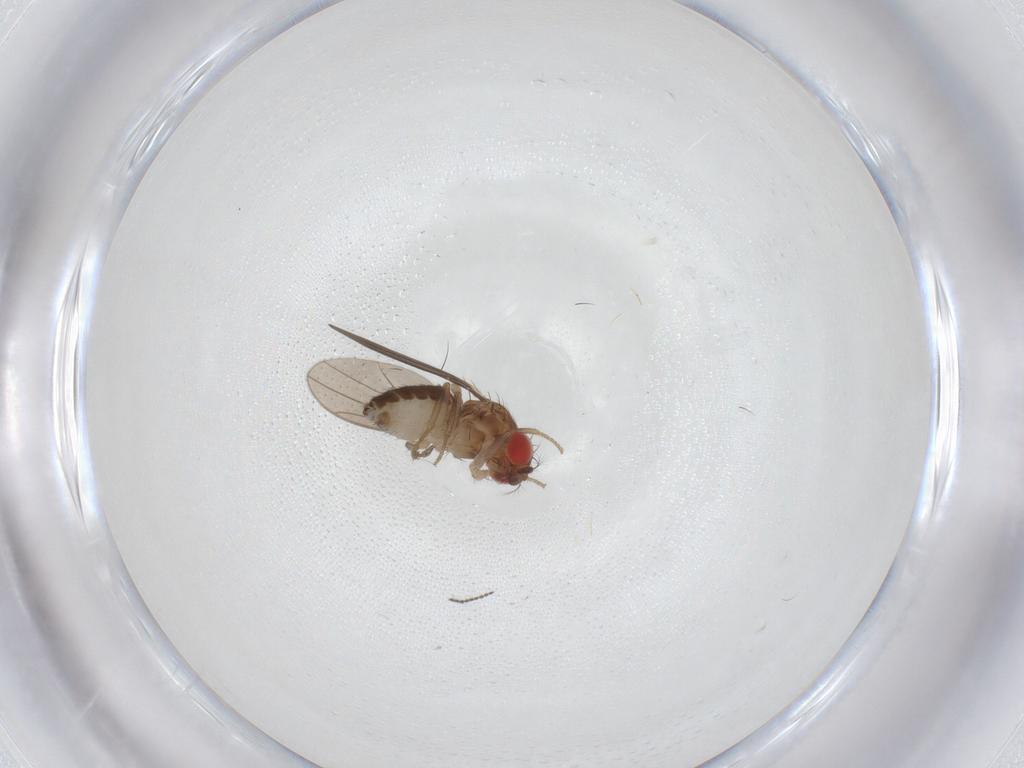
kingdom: Animalia
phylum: Arthropoda
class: Insecta
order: Diptera
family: Drosophilidae
